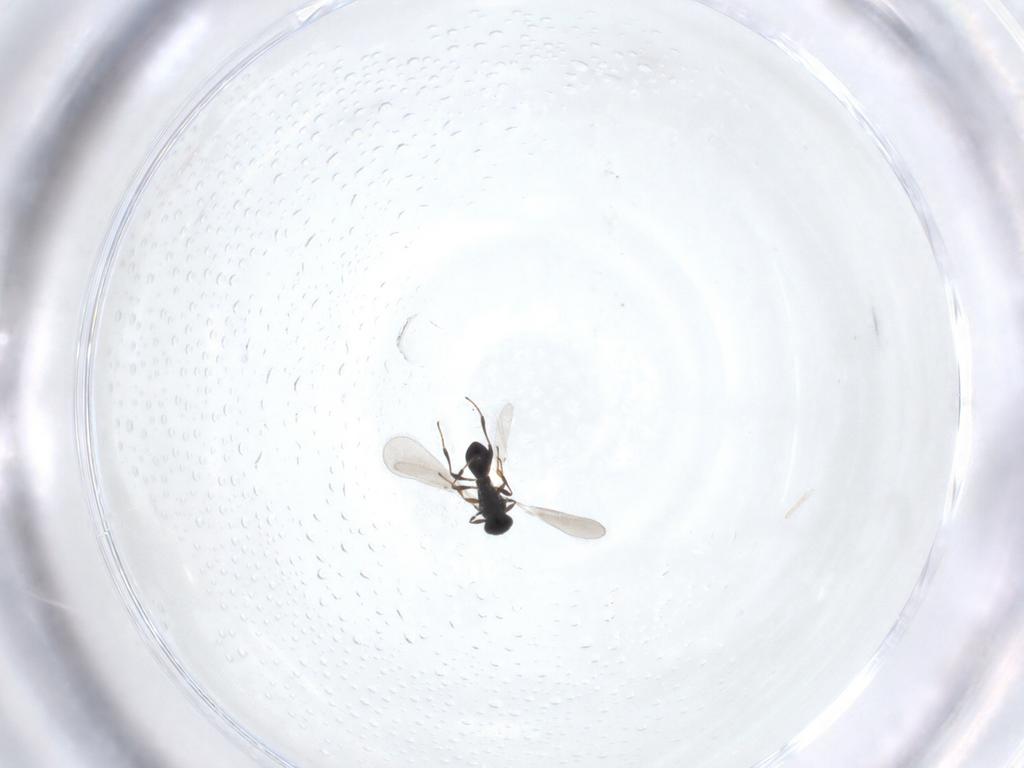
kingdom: Animalia
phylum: Arthropoda
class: Insecta
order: Hymenoptera
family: Platygastridae
